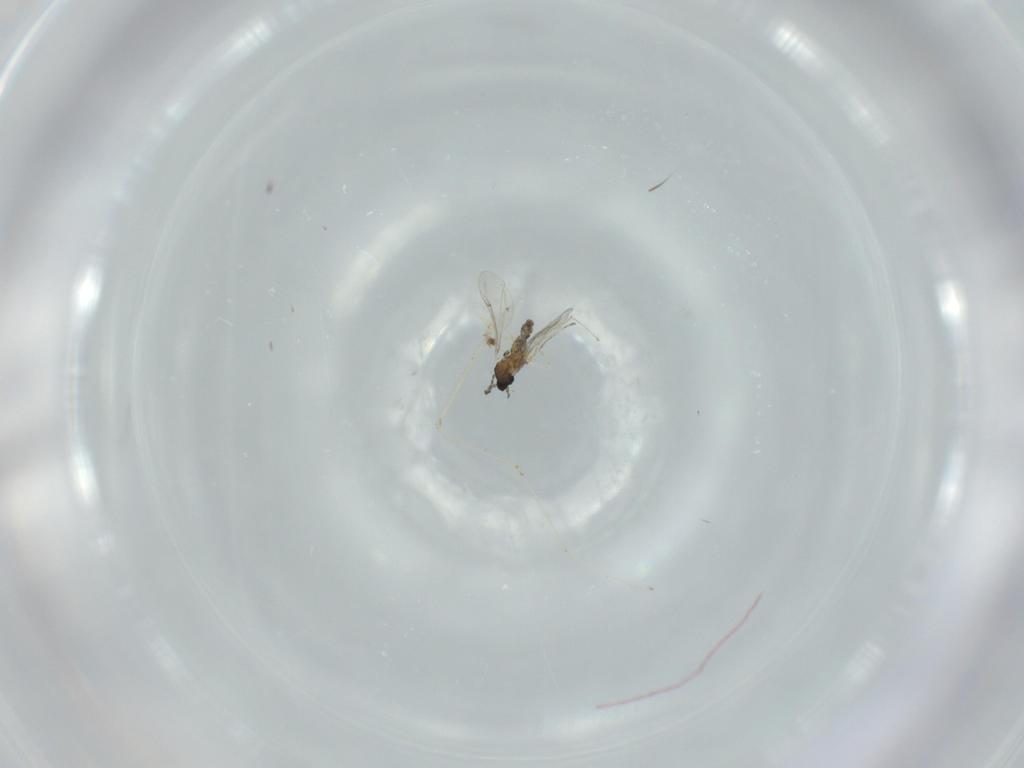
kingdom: Animalia
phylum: Arthropoda
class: Insecta
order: Diptera
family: Cecidomyiidae
